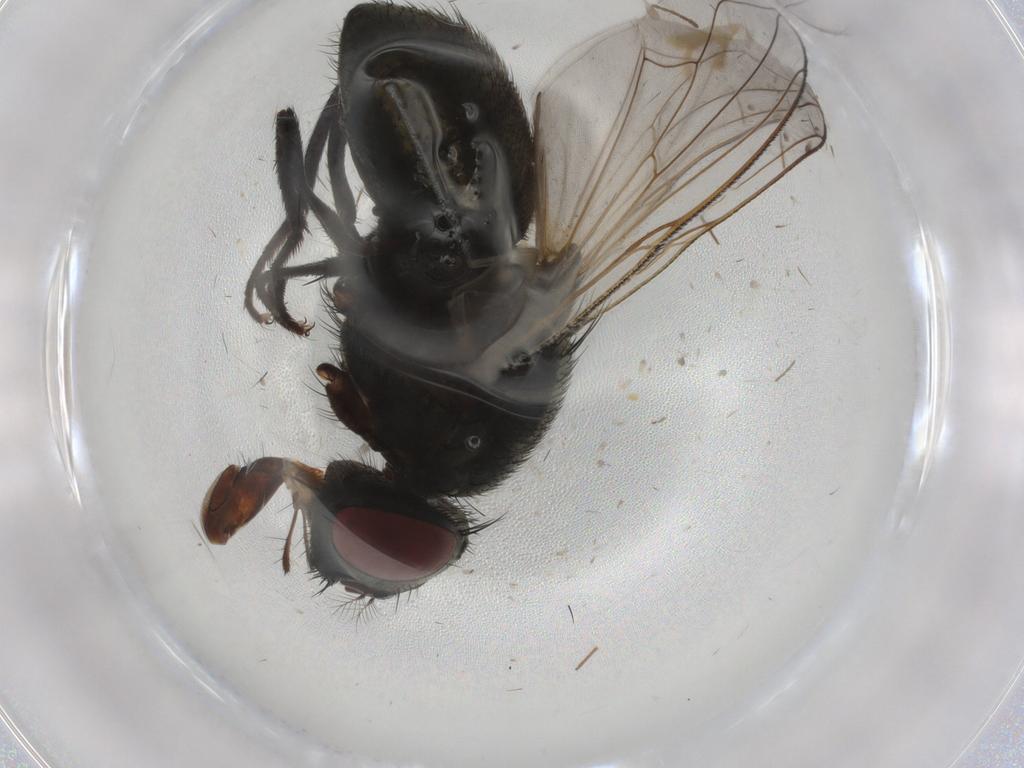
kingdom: Animalia
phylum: Arthropoda
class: Insecta
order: Diptera
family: Muscidae
